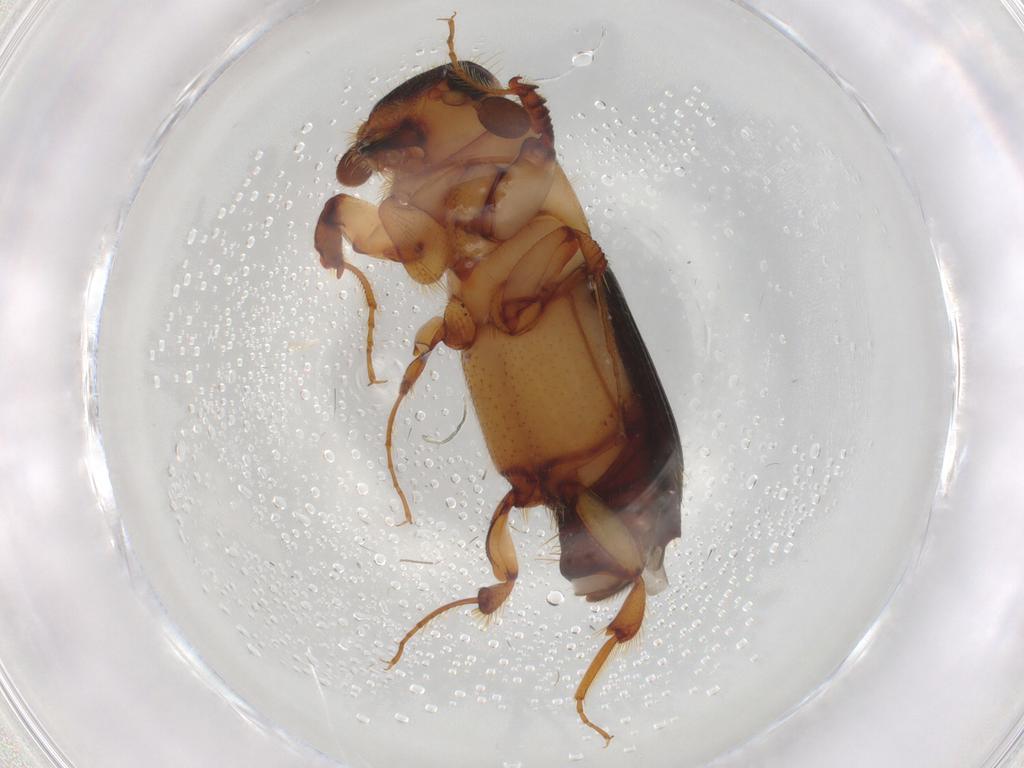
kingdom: Animalia
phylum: Arthropoda
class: Insecta
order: Coleoptera
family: Curculionidae
